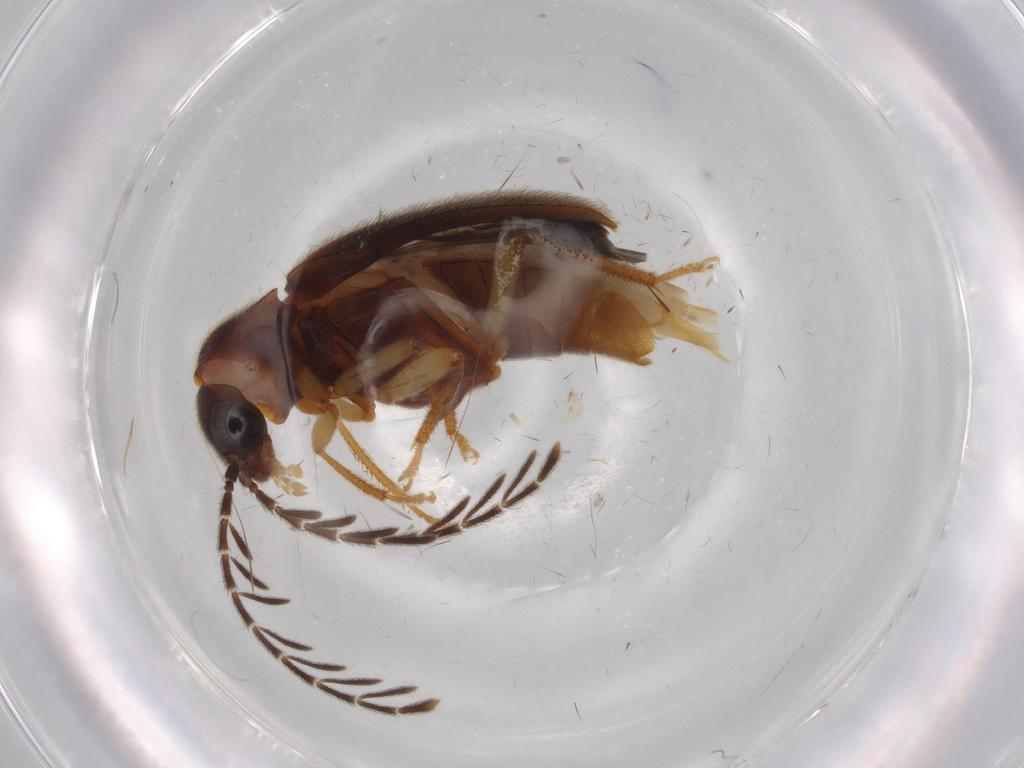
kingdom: Animalia
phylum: Arthropoda
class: Insecta
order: Coleoptera
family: Ptilodactylidae
